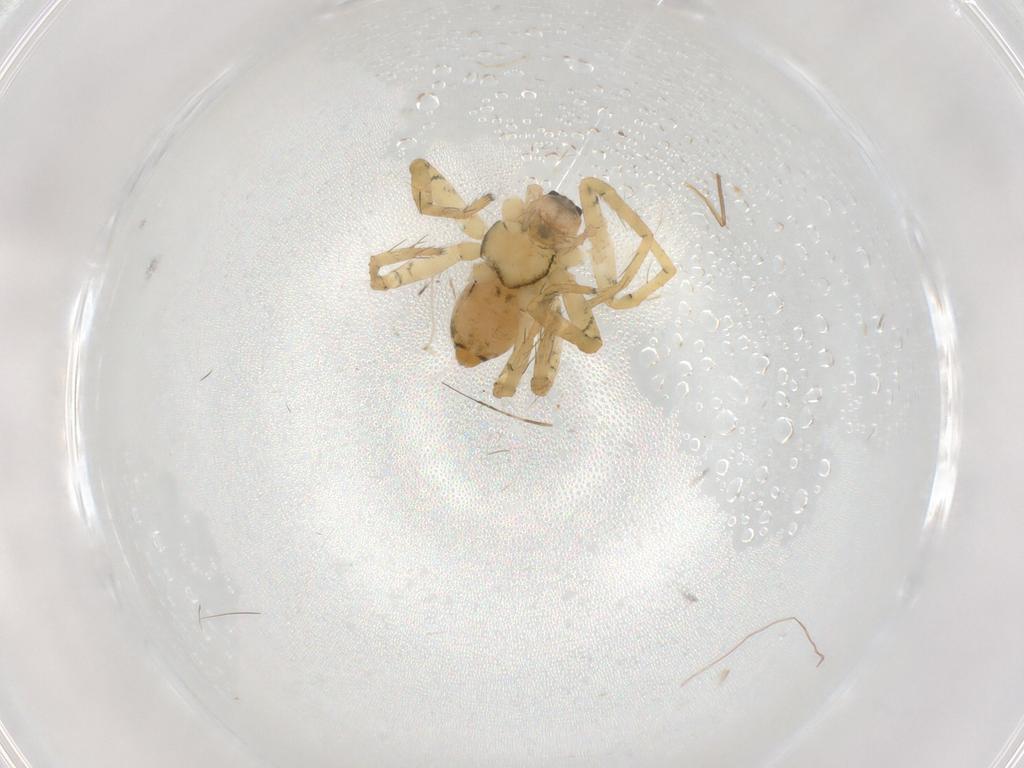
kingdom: Animalia
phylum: Arthropoda
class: Arachnida
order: Araneae
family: Pisauridae
